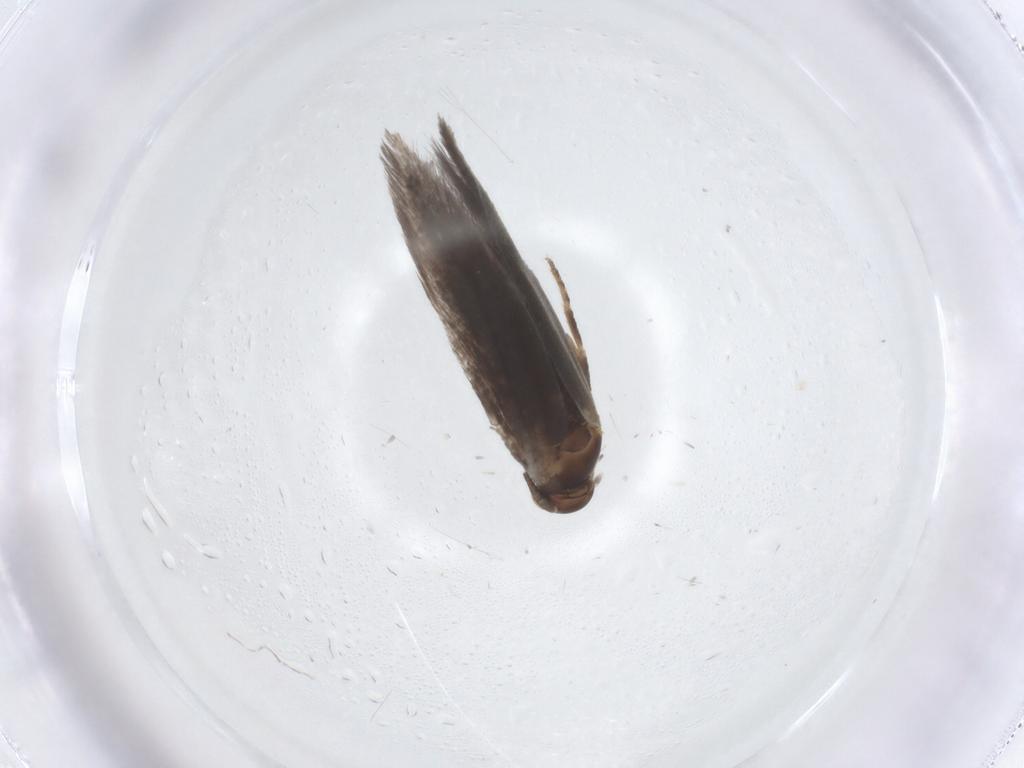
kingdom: Animalia
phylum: Arthropoda
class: Insecta
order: Lepidoptera
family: Elachistidae
